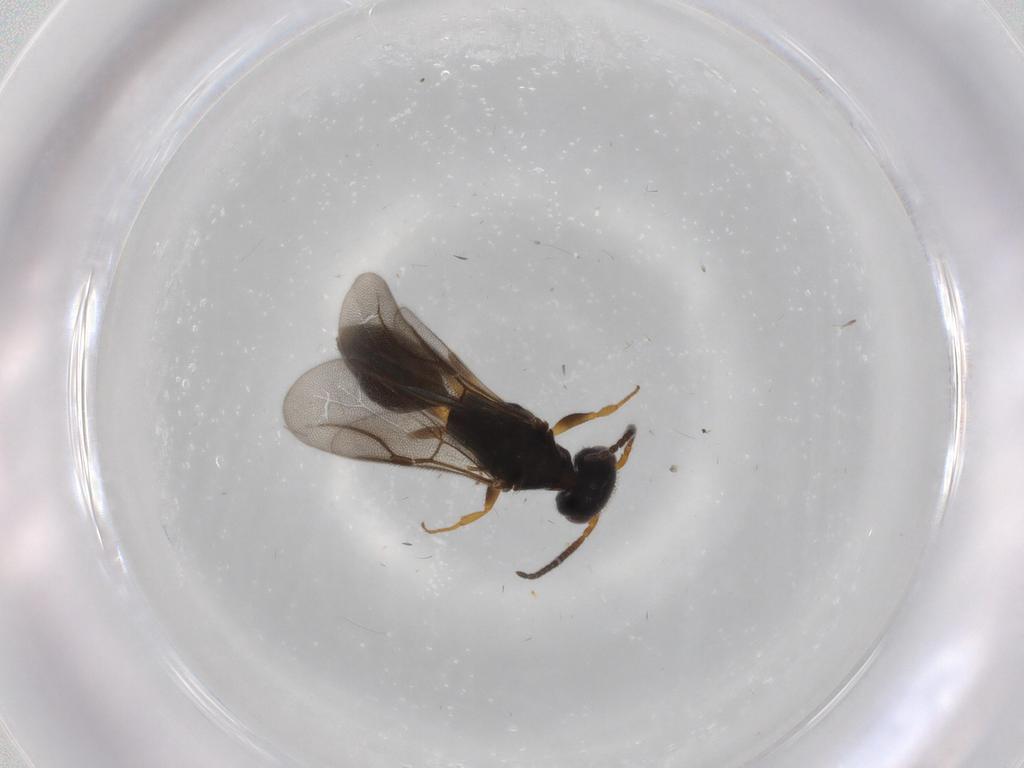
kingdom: Animalia
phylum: Arthropoda
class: Insecta
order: Hymenoptera
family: Bethylidae
